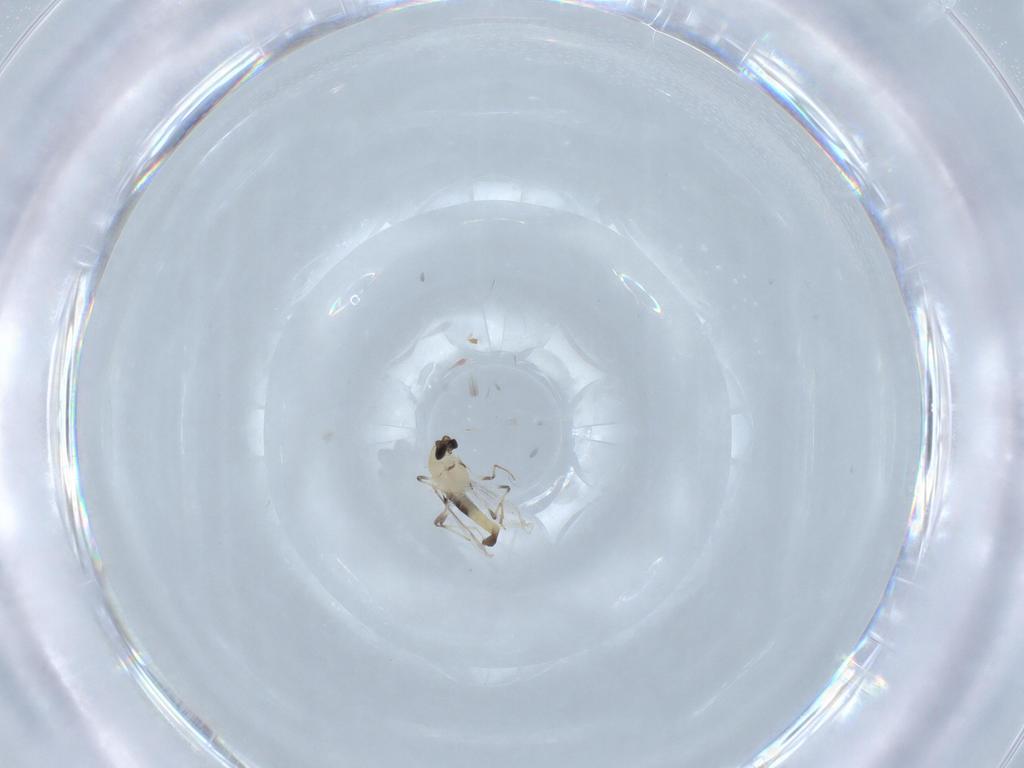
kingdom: Animalia
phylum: Arthropoda
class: Insecta
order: Diptera
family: Chironomidae
